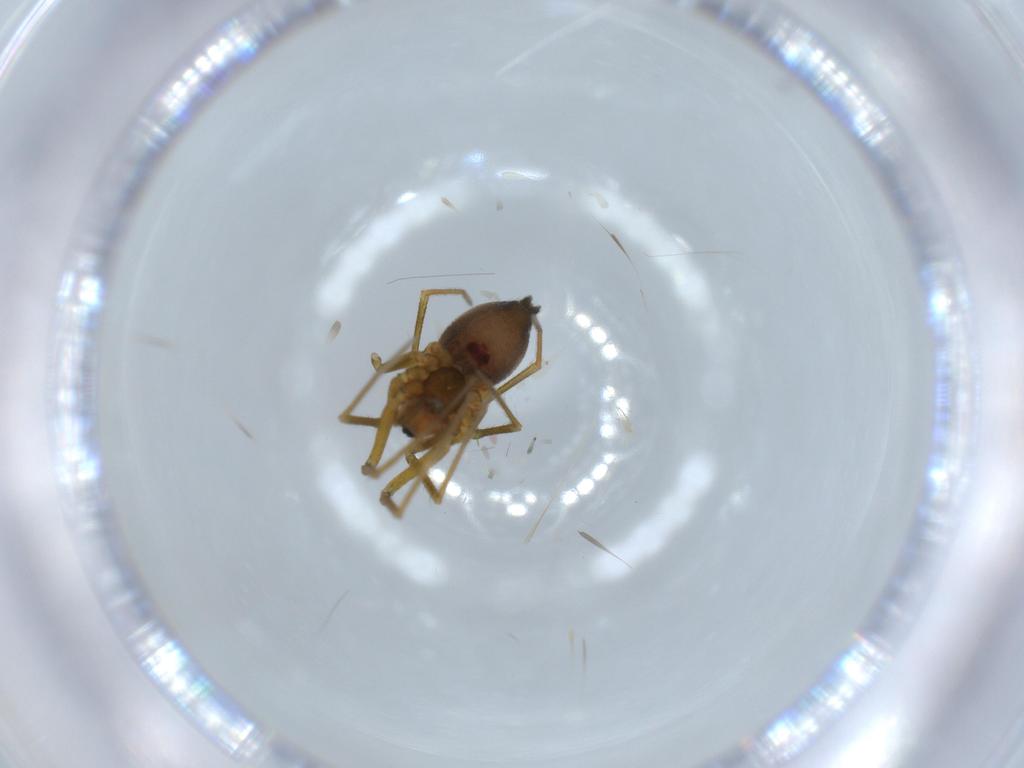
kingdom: Animalia
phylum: Arthropoda
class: Arachnida
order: Araneae
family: Linyphiidae
